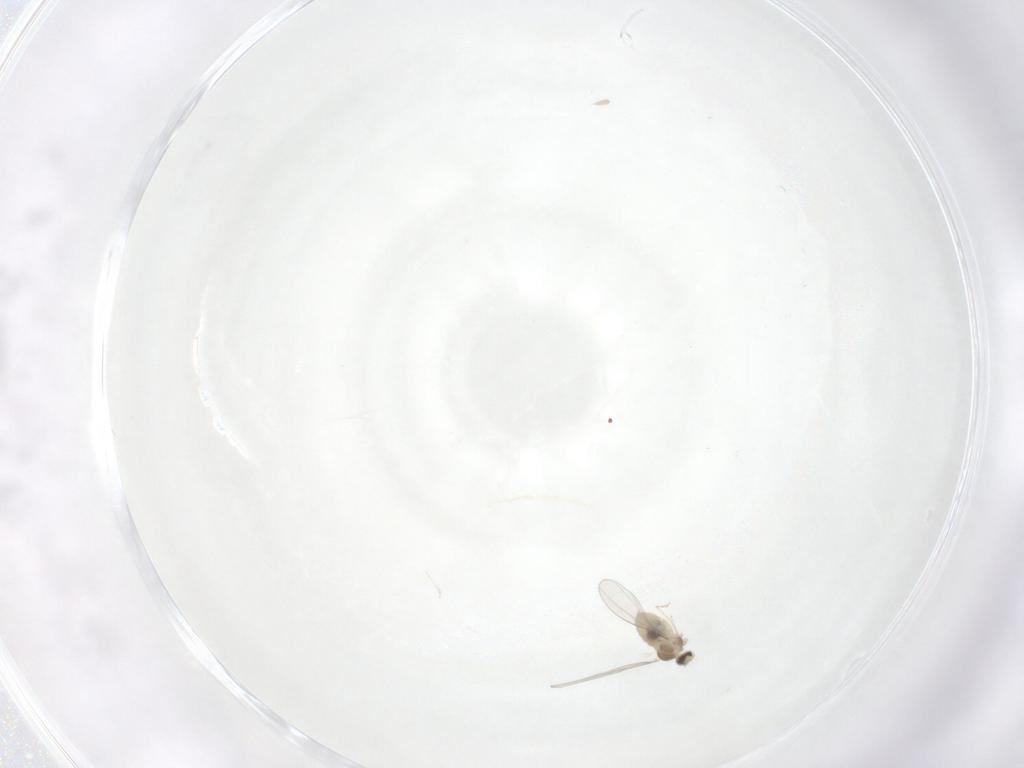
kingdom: Animalia
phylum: Arthropoda
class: Insecta
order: Diptera
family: Cecidomyiidae
